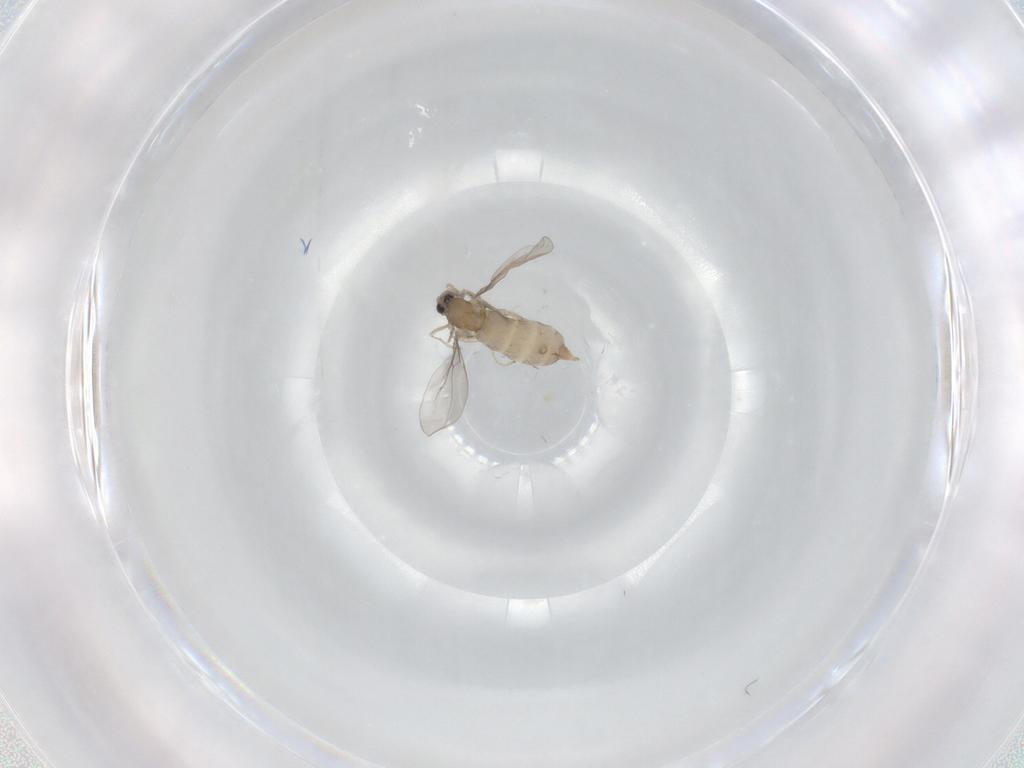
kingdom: Animalia
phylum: Arthropoda
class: Insecta
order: Diptera
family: Cecidomyiidae
